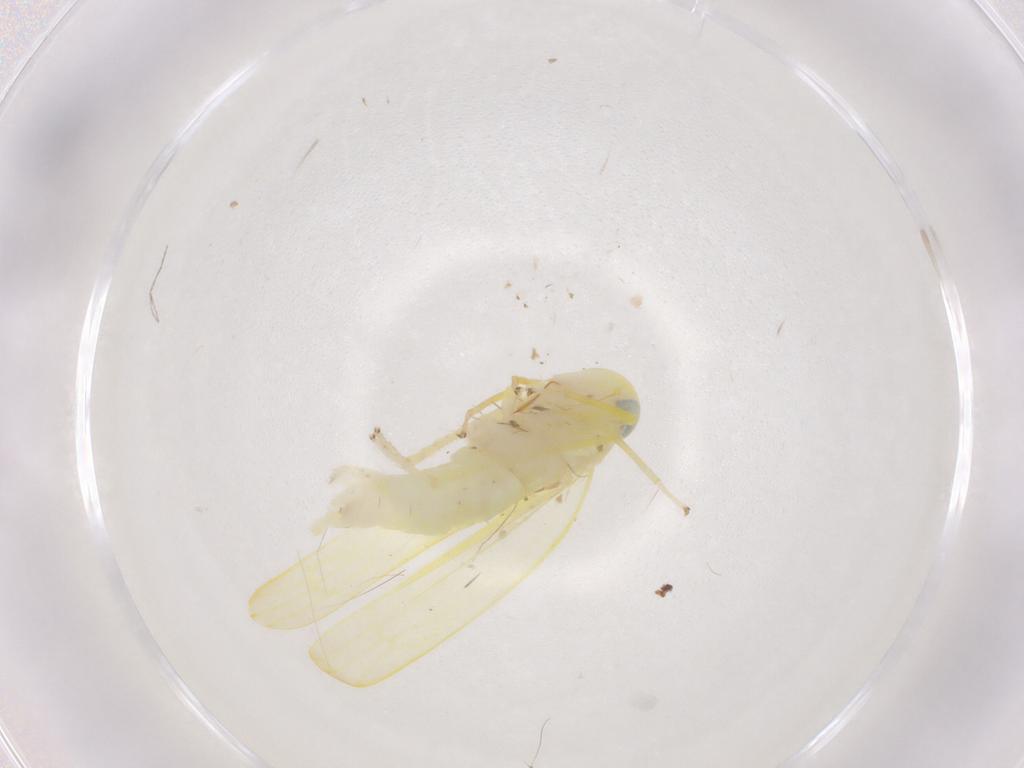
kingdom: Animalia
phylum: Arthropoda
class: Insecta
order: Hemiptera
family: Cicadellidae
